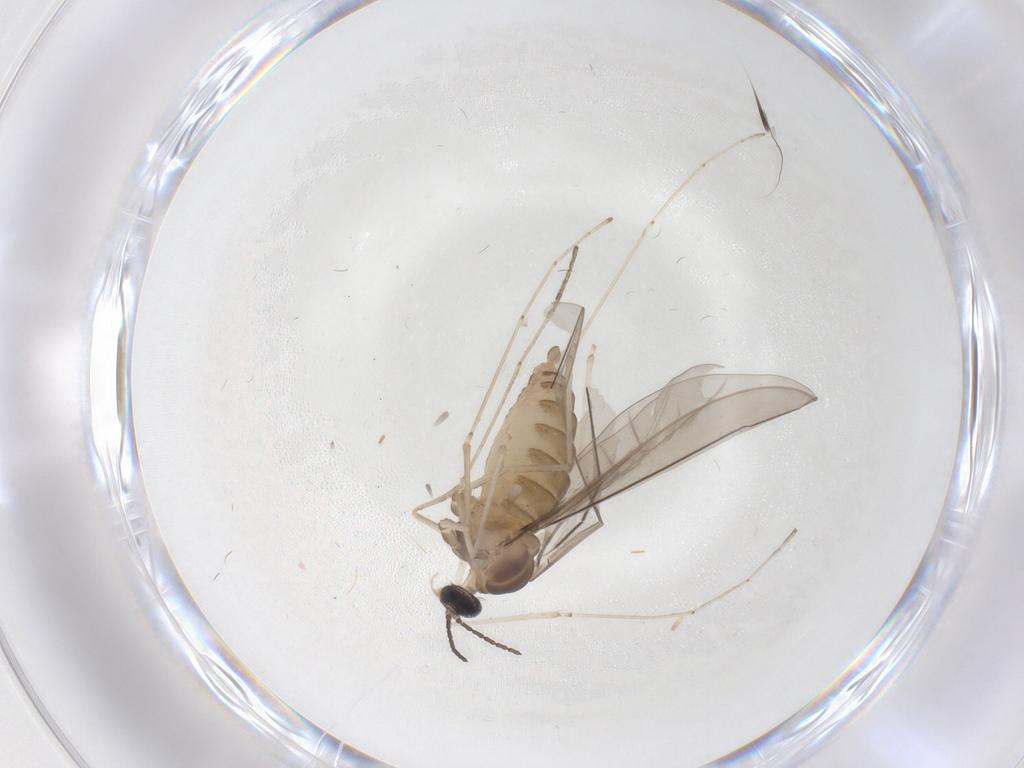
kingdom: Animalia
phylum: Arthropoda
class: Insecta
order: Diptera
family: Cecidomyiidae
